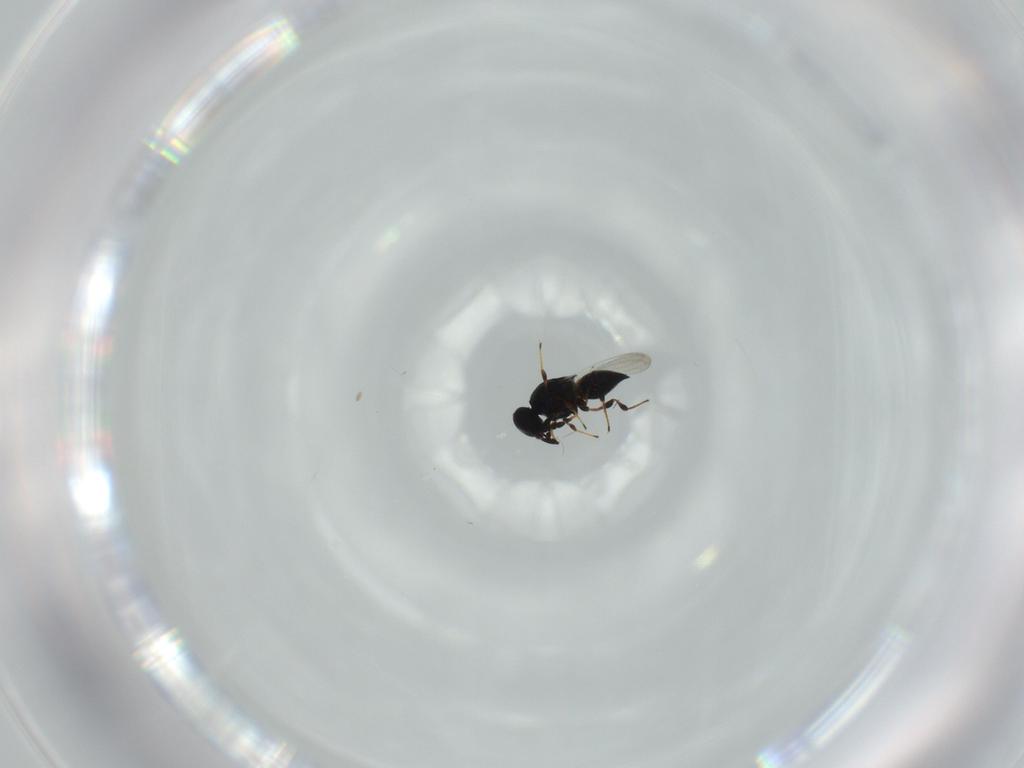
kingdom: Animalia
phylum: Arthropoda
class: Insecta
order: Hymenoptera
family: Platygastridae
